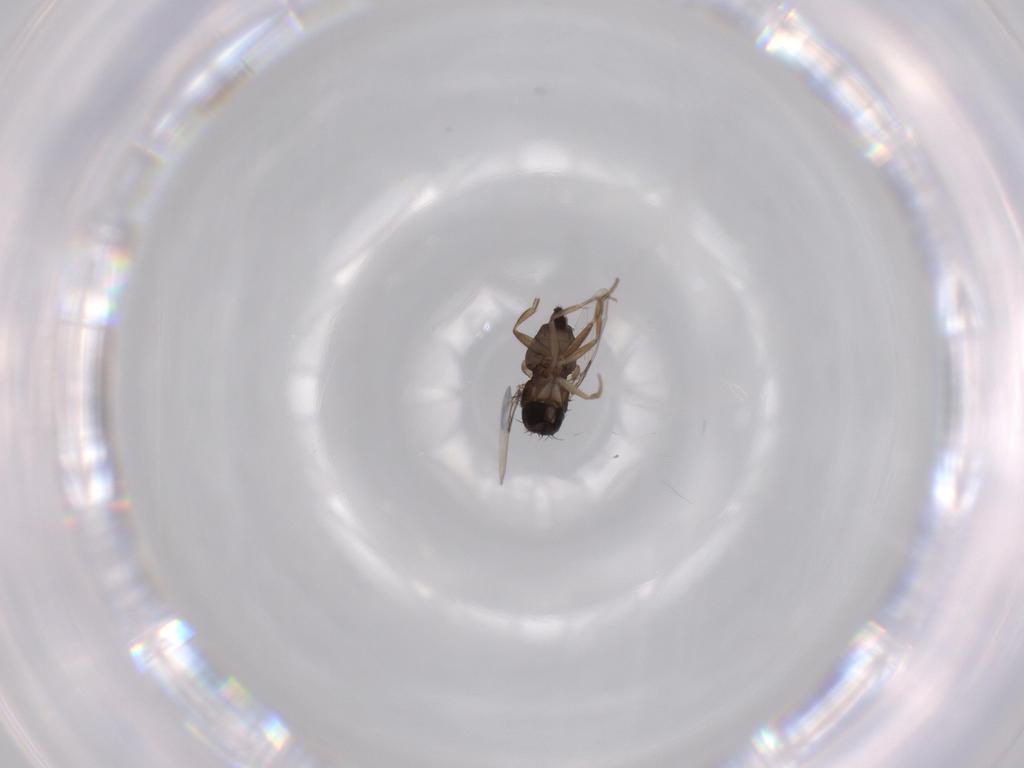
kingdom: Animalia
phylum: Arthropoda
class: Insecta
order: Diptera
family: Phoridae
